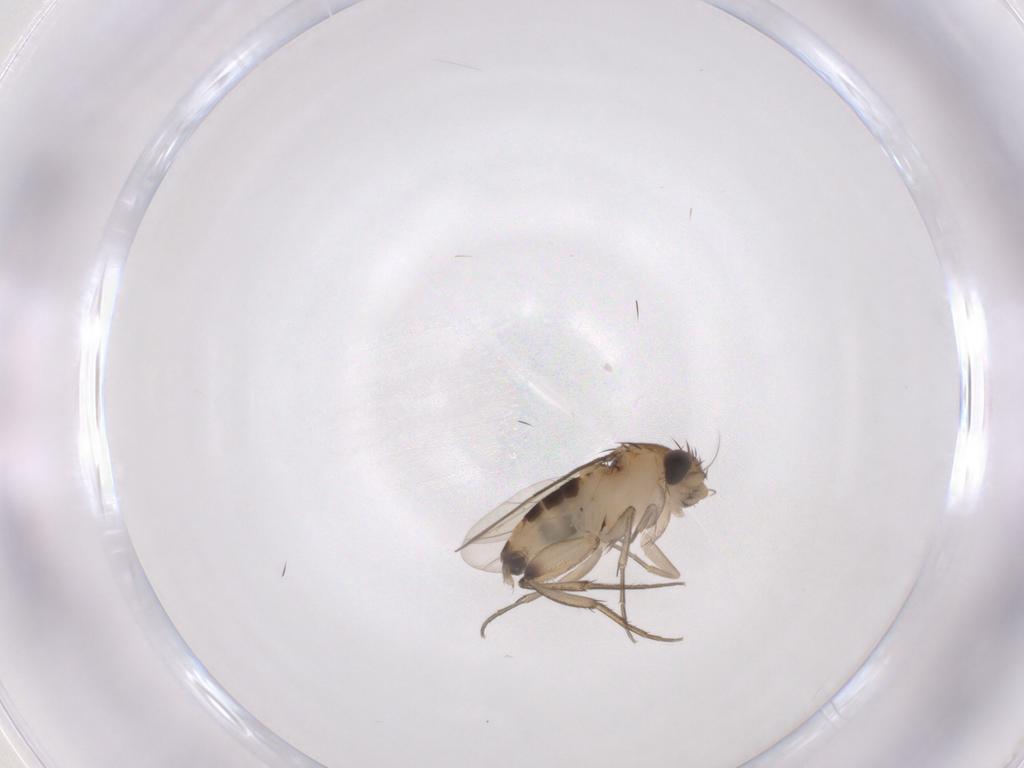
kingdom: Animalia
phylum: Arthropoda
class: Insecta
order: Diptera
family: Phoridae
